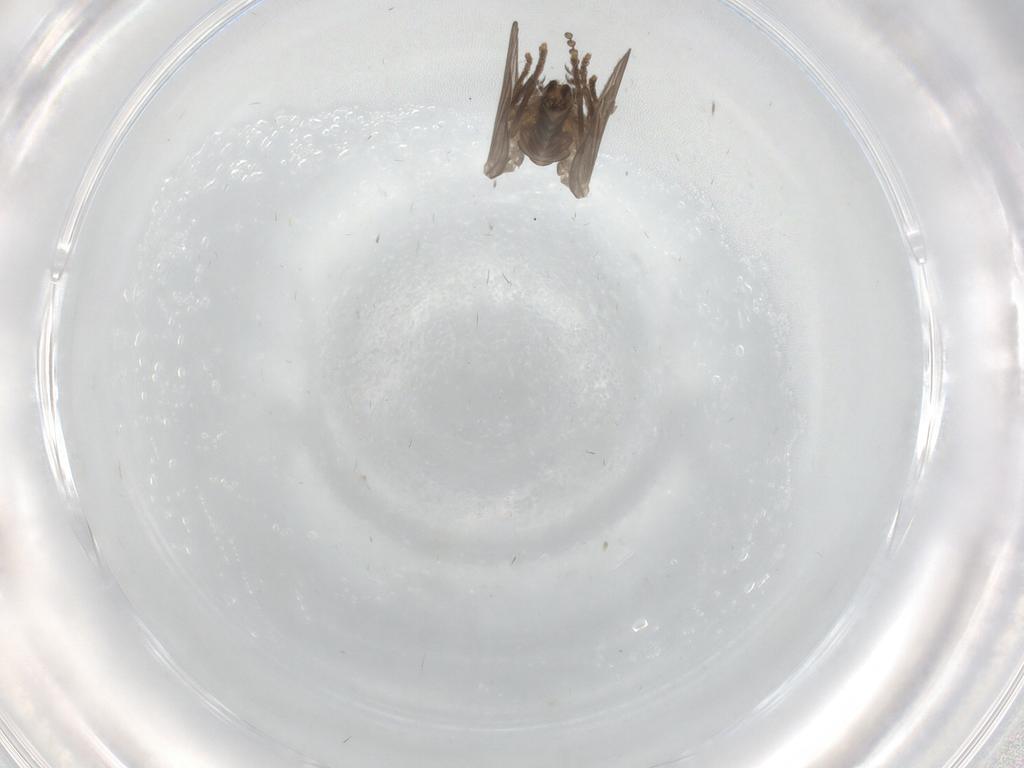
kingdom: Animalia
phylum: Arthropoda
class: Insecta
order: Diptera
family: Psychodidae
